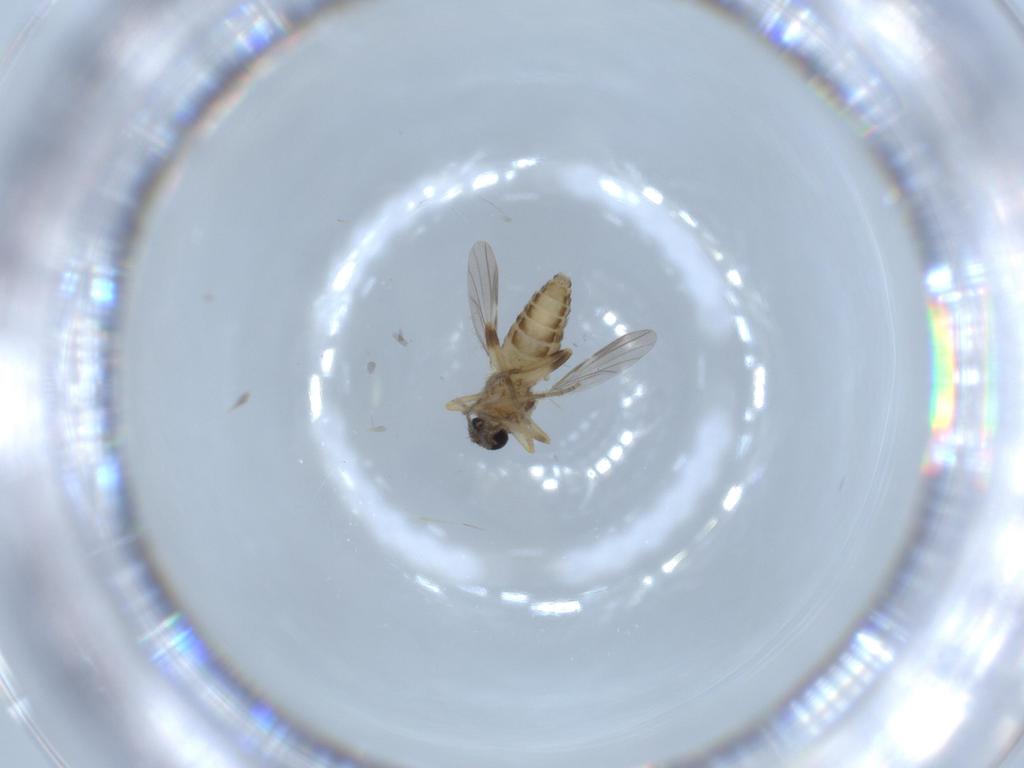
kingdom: Animalia
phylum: Arthropoda
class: Insecta
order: Diptera
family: Ceratopogonidae
